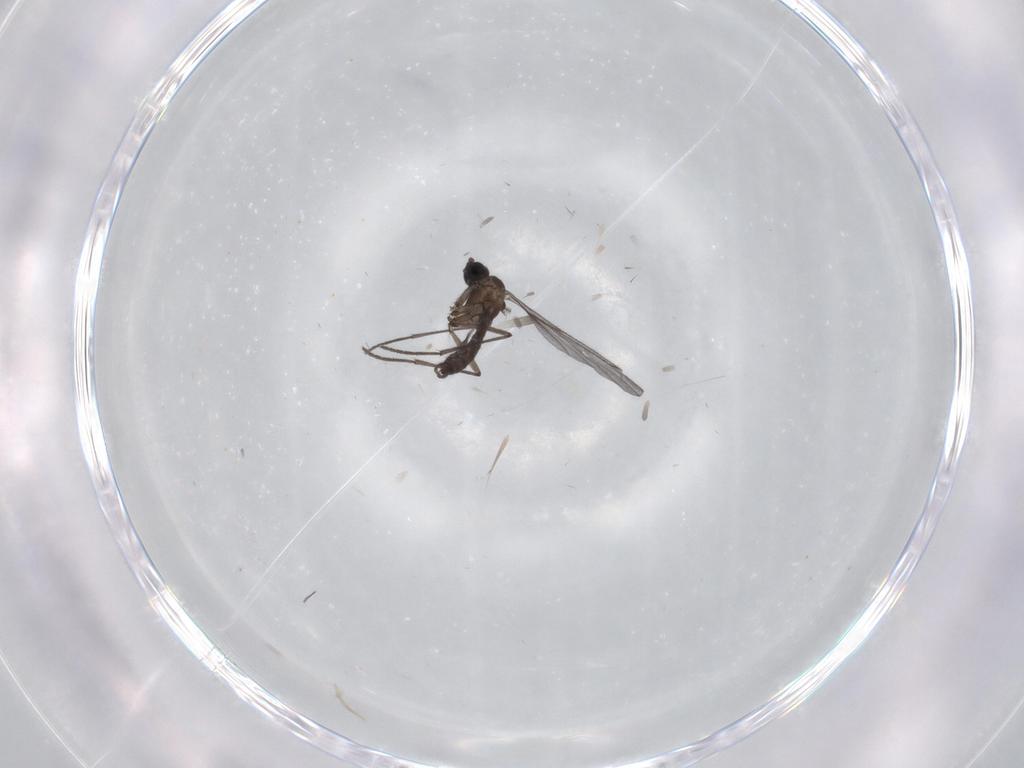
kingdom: Animalia
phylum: Arthropoda
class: Insecta
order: Diptera
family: Sciaridae
